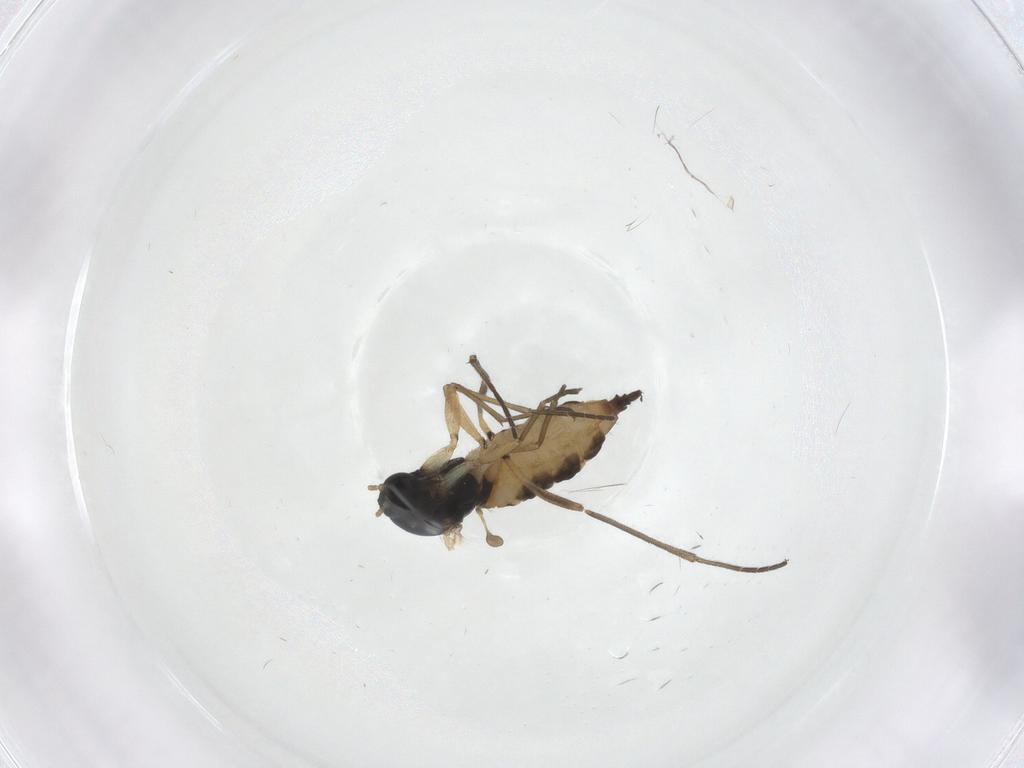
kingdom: Animalia
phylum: Arthropoda
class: Insecta
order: Diptera
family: Sciaridae
